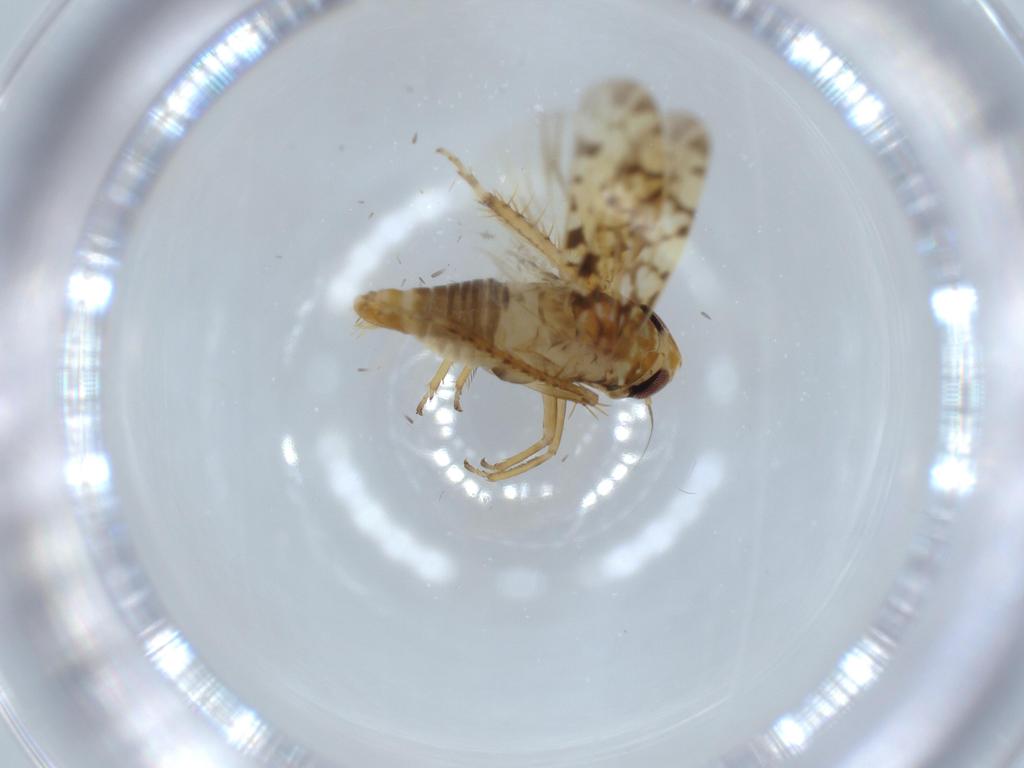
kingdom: Animalia
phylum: Arthropoda
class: Insecta
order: Hemiptera
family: Cicadellidae
